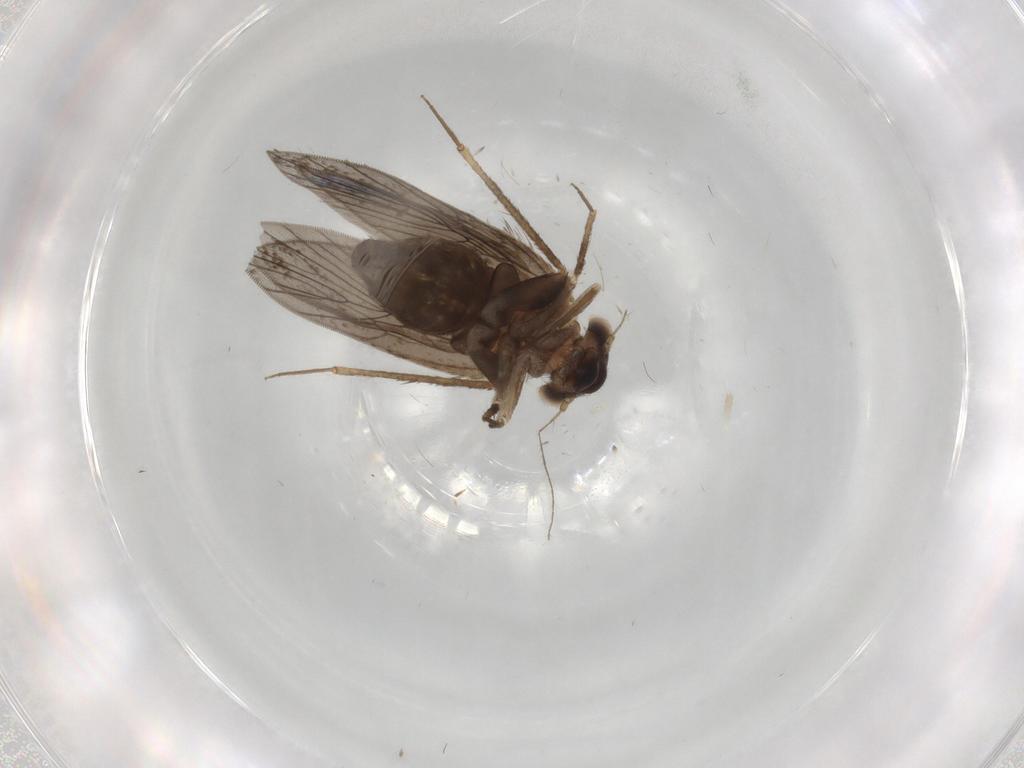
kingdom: Animalia
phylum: Arthropoda
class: Insecta
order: Psocodea
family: Lepidopsocidae
